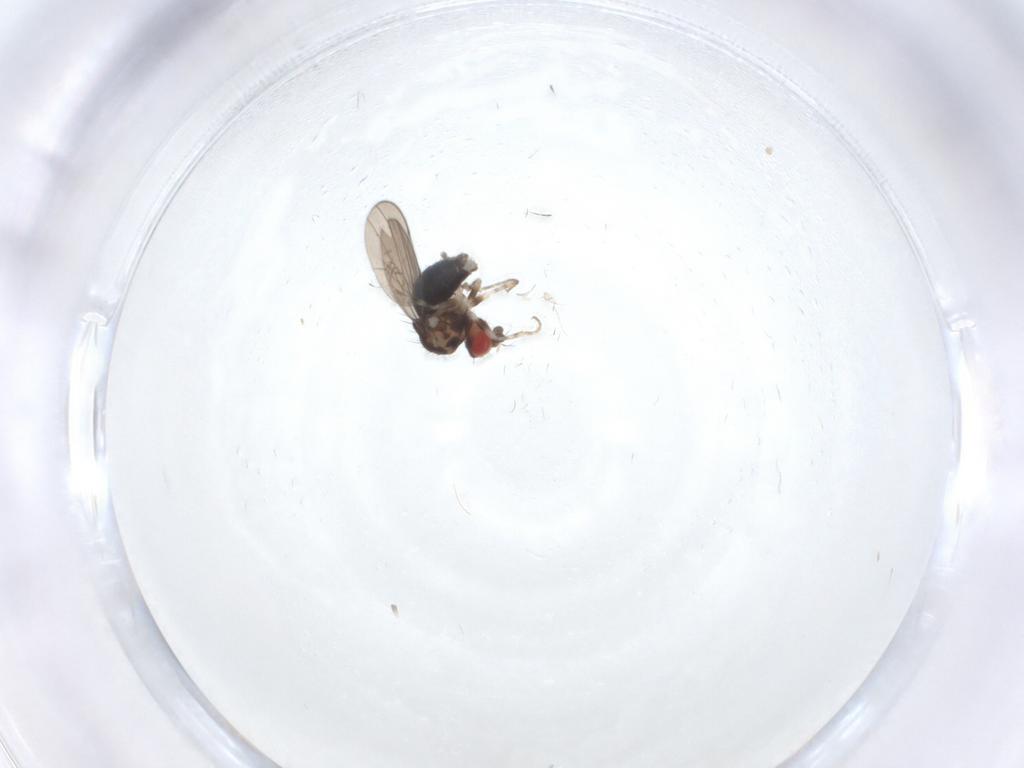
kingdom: Animalia
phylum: Arthropoda
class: Insecta
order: Diptera
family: Drosophilidae
